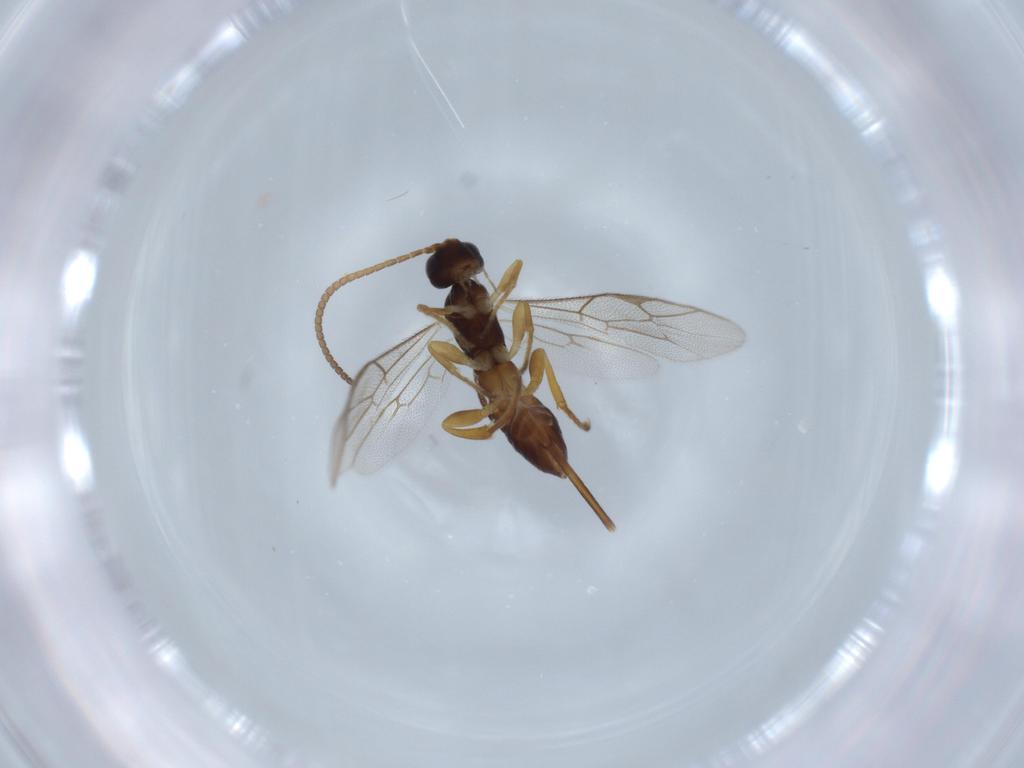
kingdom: Animalia
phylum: Arthropoda
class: Insecta
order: Hymenoptera
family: Ichneumonidae
